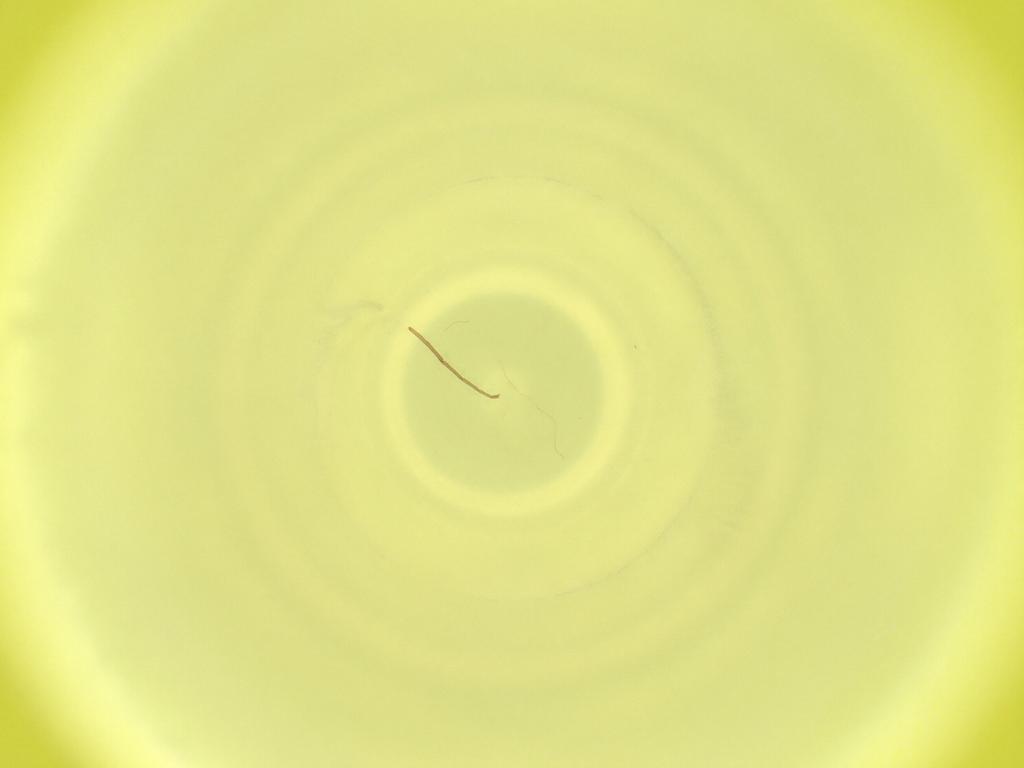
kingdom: Animalia
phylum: Arthropoda
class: Insecta
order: Diptera
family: Cecidomyiidae
